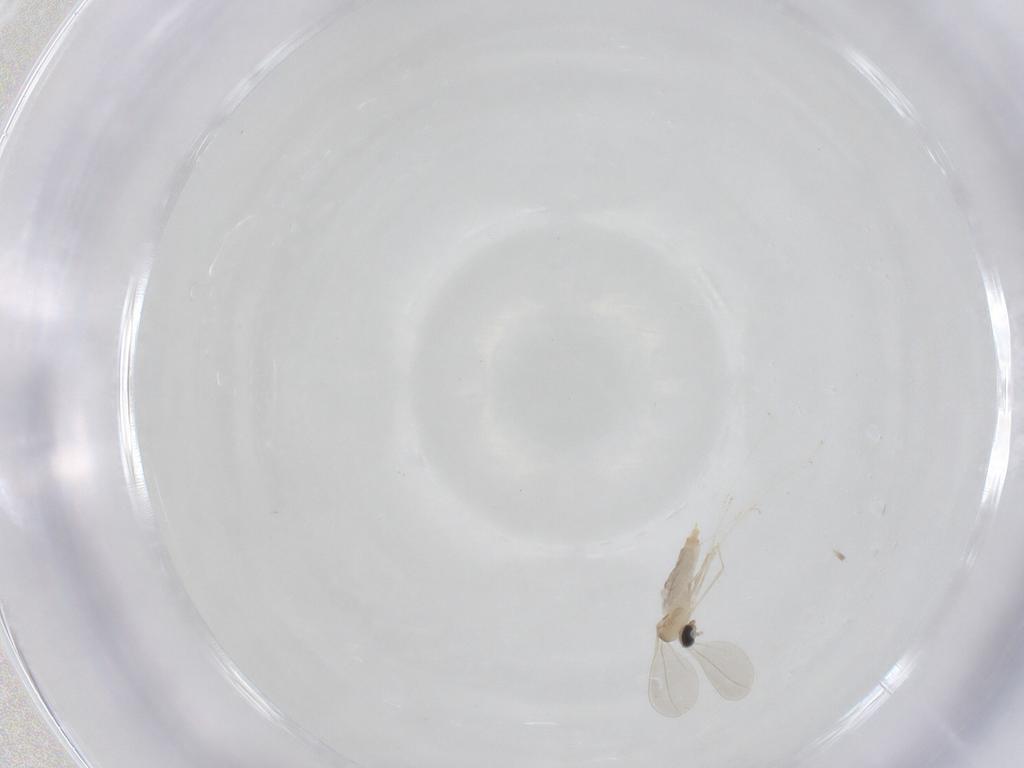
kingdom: Animalia
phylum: Arthropoda
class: Insecta
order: Diptera
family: Cecidomyiidae
